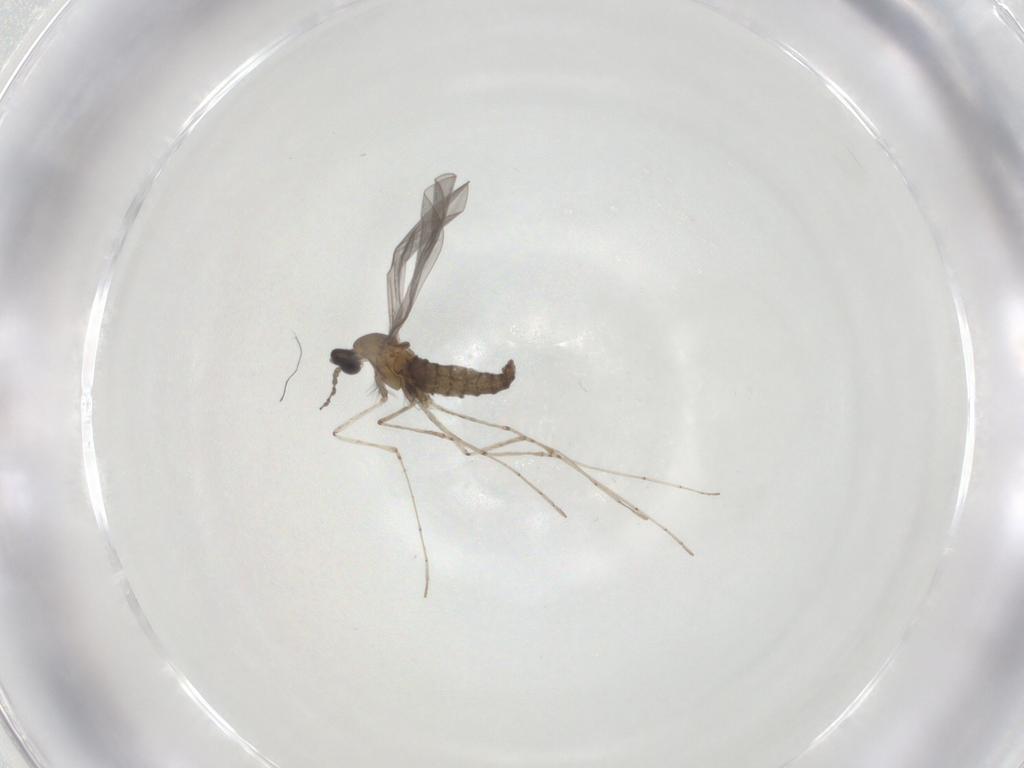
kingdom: Animalia
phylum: Arthropoda
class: Insecta
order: Diptera
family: Cecidomyiidae
